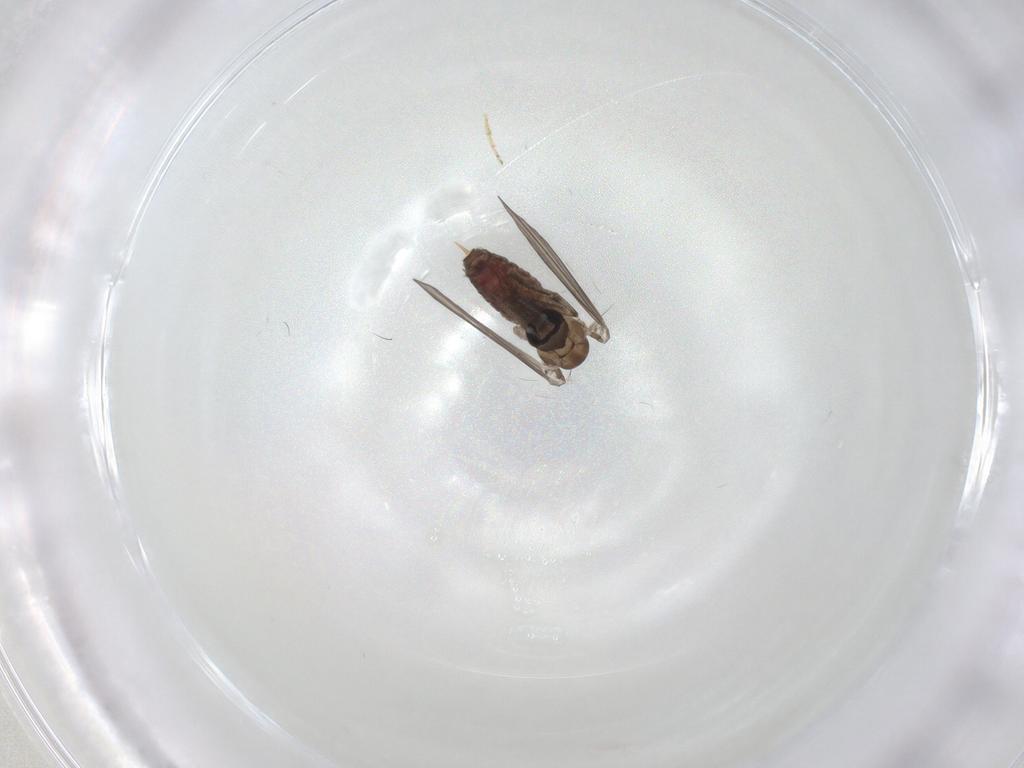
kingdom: Animalia
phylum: Arthropoda
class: Insecta
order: Diptera
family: Psychodidae
